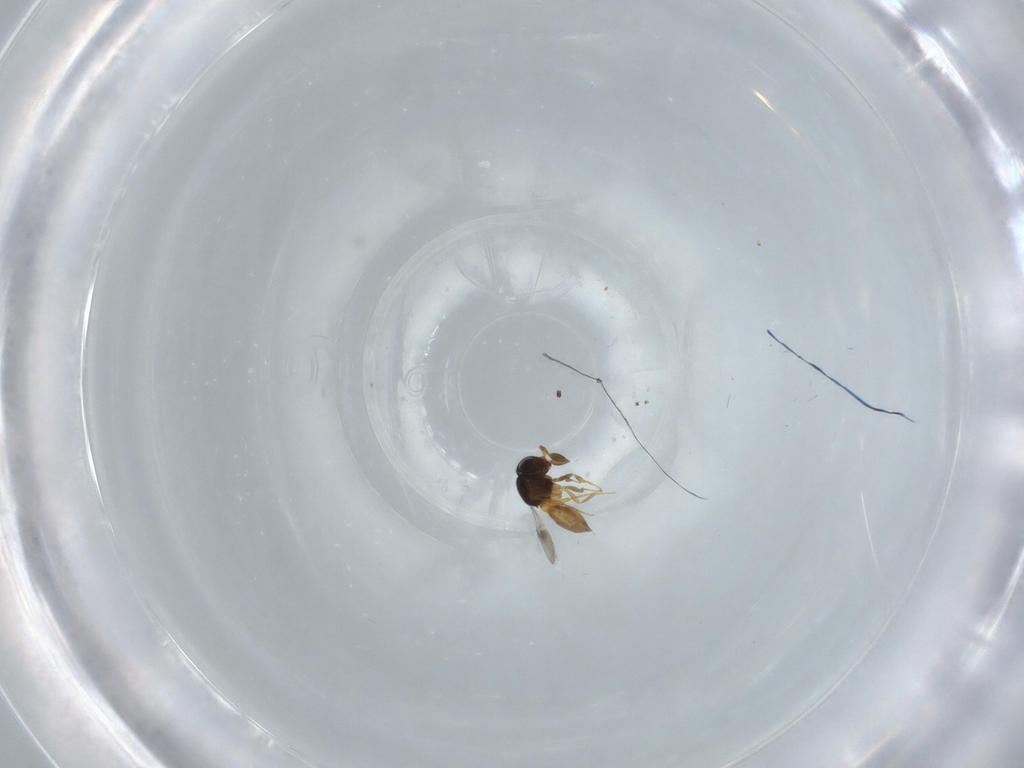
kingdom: Animalia
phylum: Arthropoda
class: Insecta
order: Hymenoptera
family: Scelionidae
